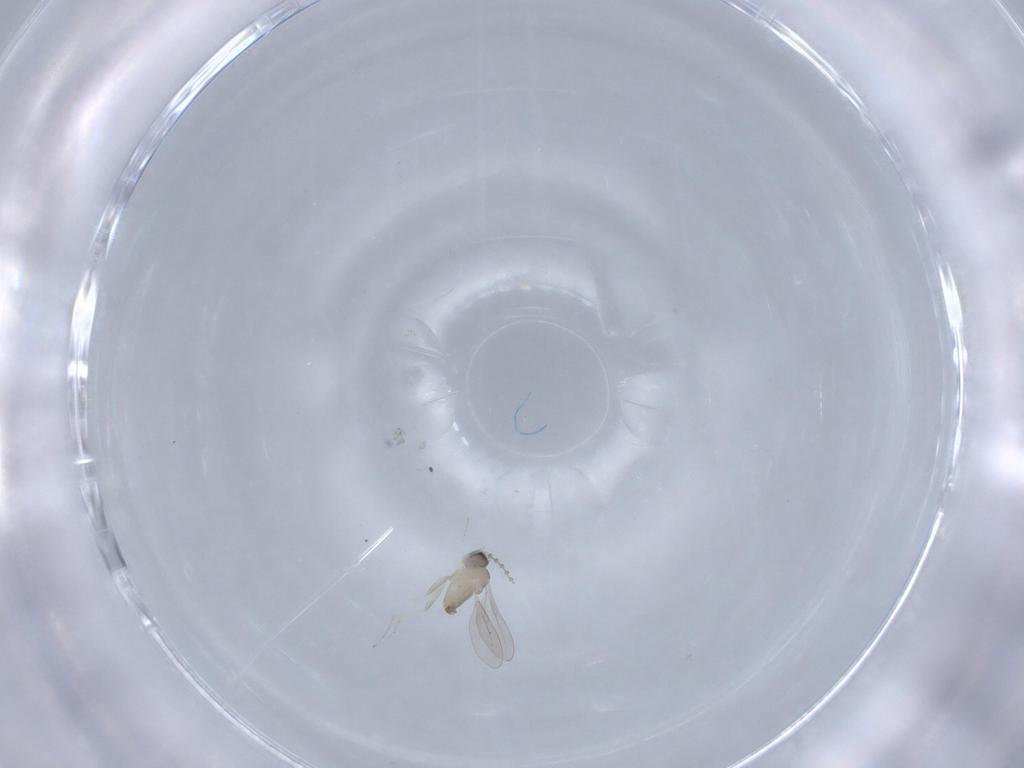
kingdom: Animalia
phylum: Arthropoda
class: Insecta
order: Diptera
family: Cecidomyiidae
